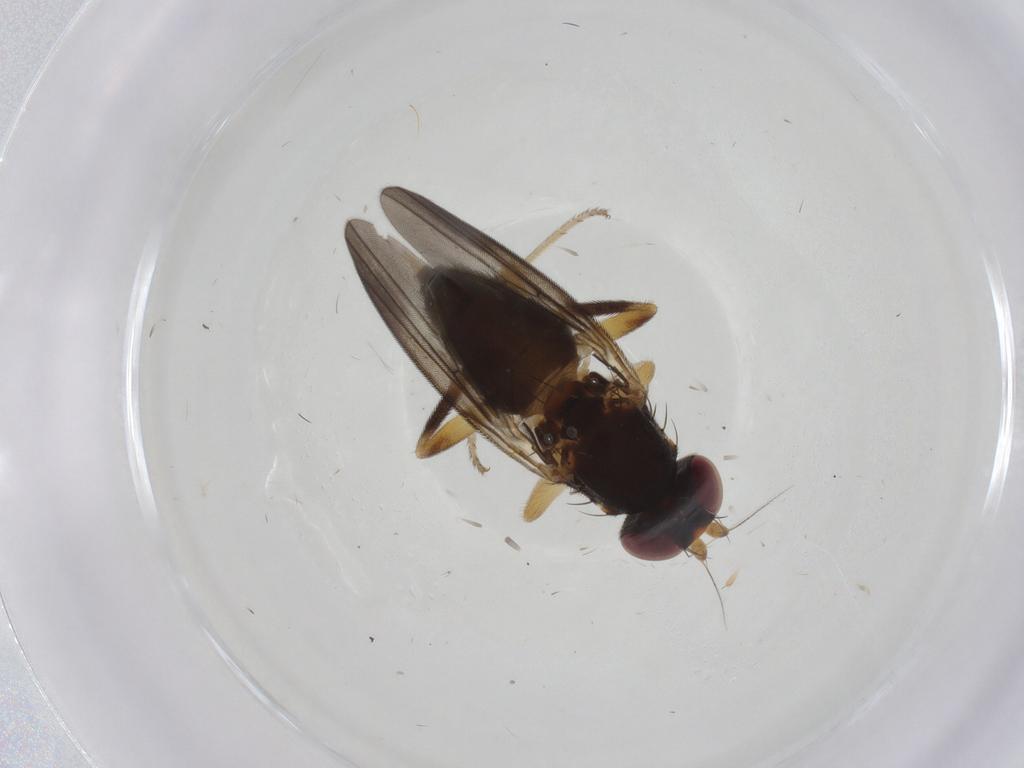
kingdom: Animalia
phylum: Arthropoda
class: Insecta
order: Diptera
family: Psychodidae
